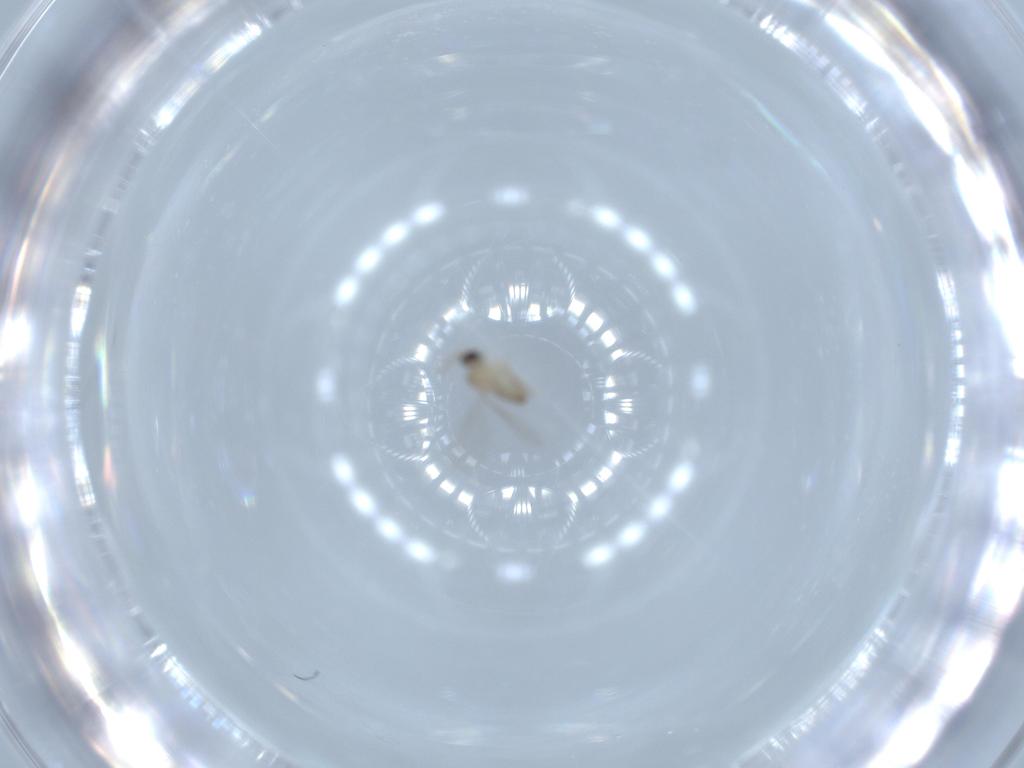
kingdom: Animalia
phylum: Arthropoda
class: Insecta
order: Diptera
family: Cecidomyiidae
